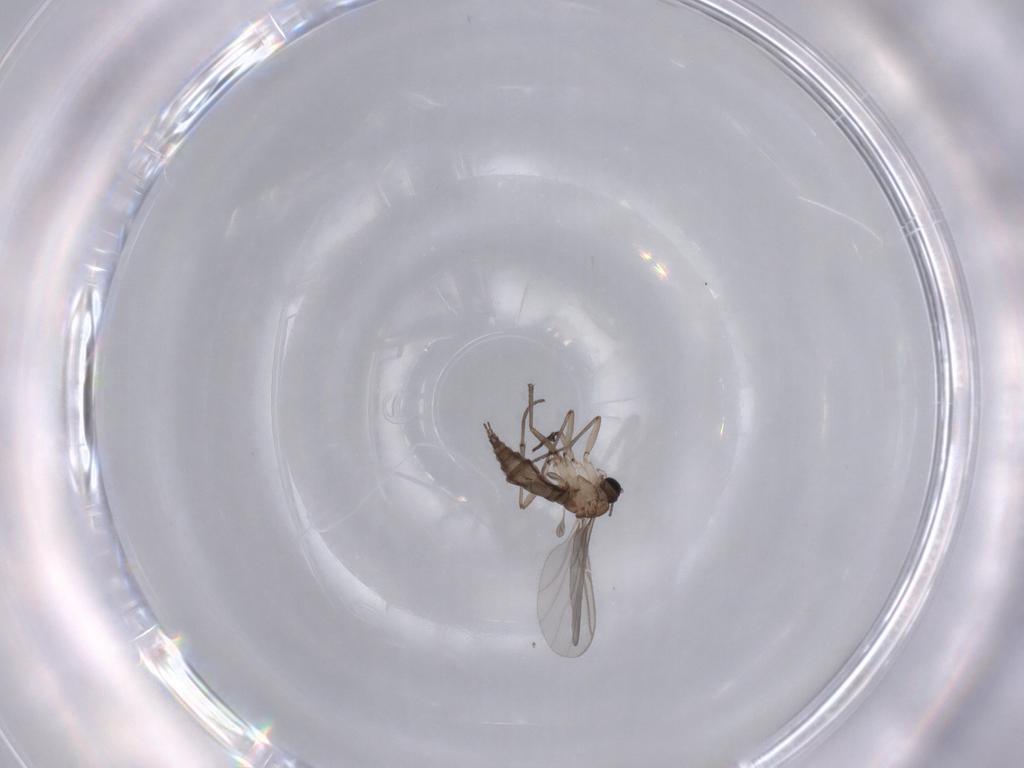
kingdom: Animalia
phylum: Arthropoda
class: Insecta
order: Diptera
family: Sciaridae
